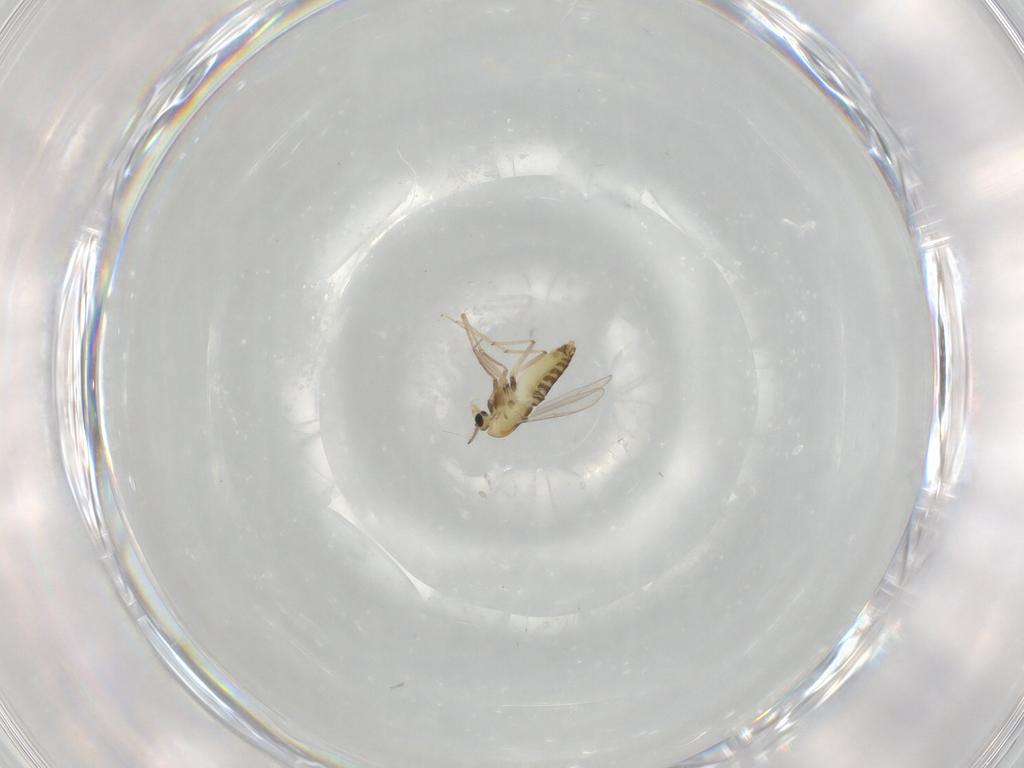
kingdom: Animalia
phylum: Arthropoda
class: Insecta
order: Diptera
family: Chironomidae
